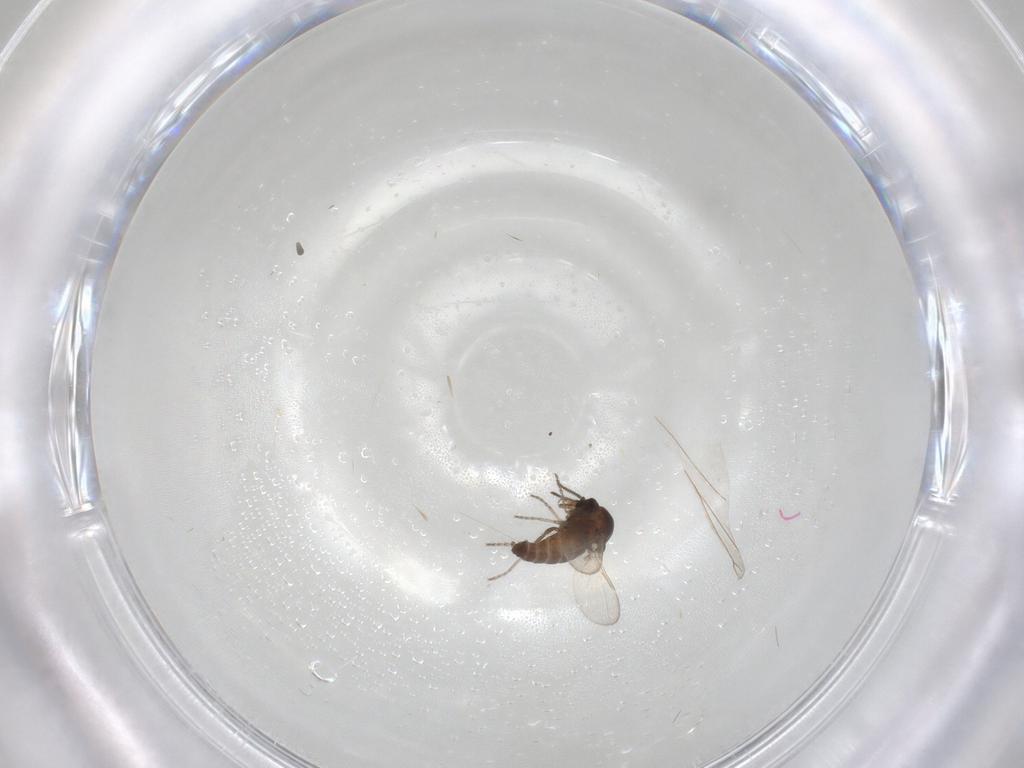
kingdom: Animalia
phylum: Arthropoda
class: Insecta
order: Diptera
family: Ceratopogonidae
